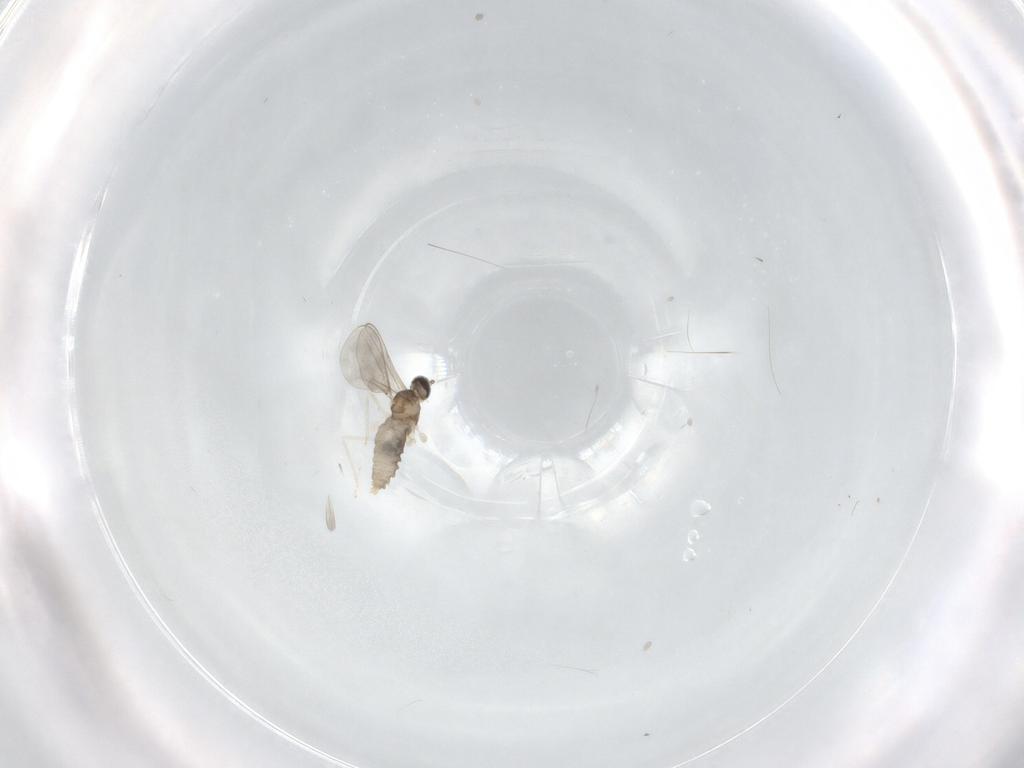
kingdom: Animalia
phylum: Arthropoda
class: Insecta
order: Diptera
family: Cecidomyiidae
